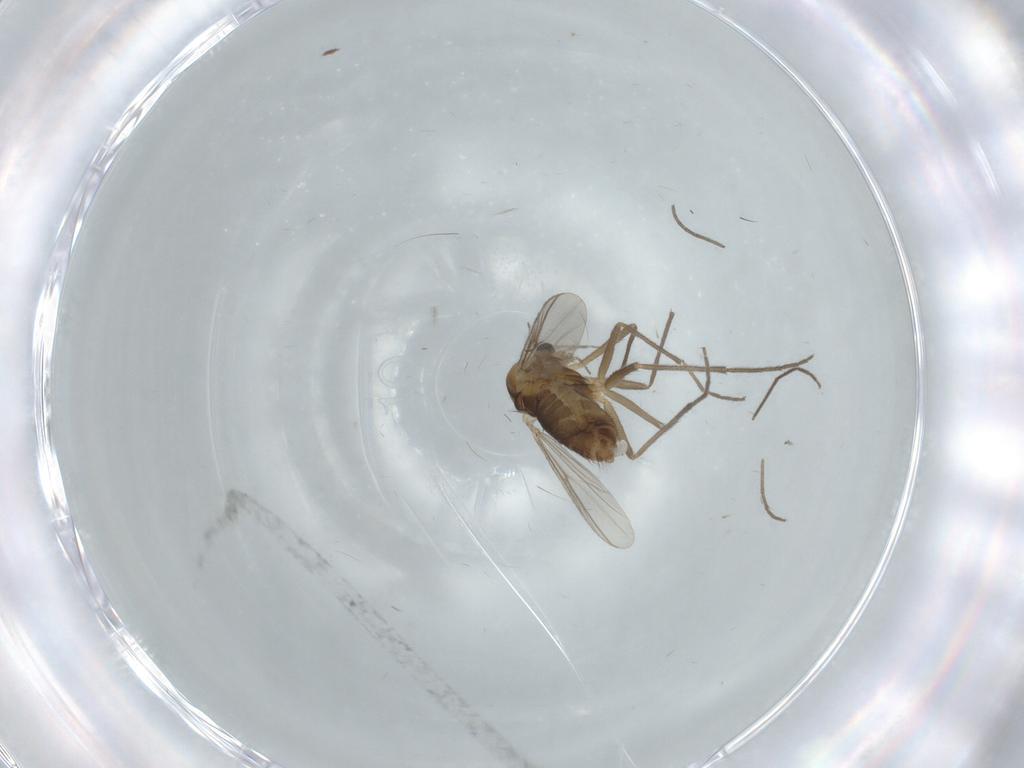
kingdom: Animalia
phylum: Arthropoda
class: Insecta
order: Diptera
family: Chironomidae
